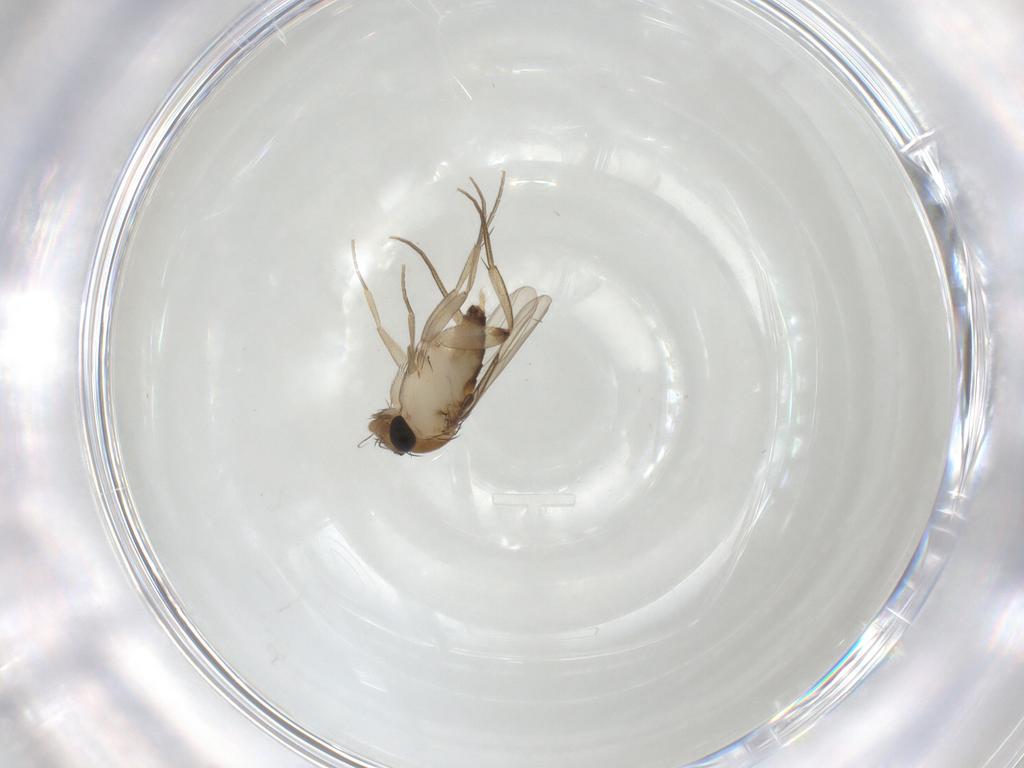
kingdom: Animalia
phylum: Arthropoda
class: Insecta
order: Diptera
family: Phoridae
